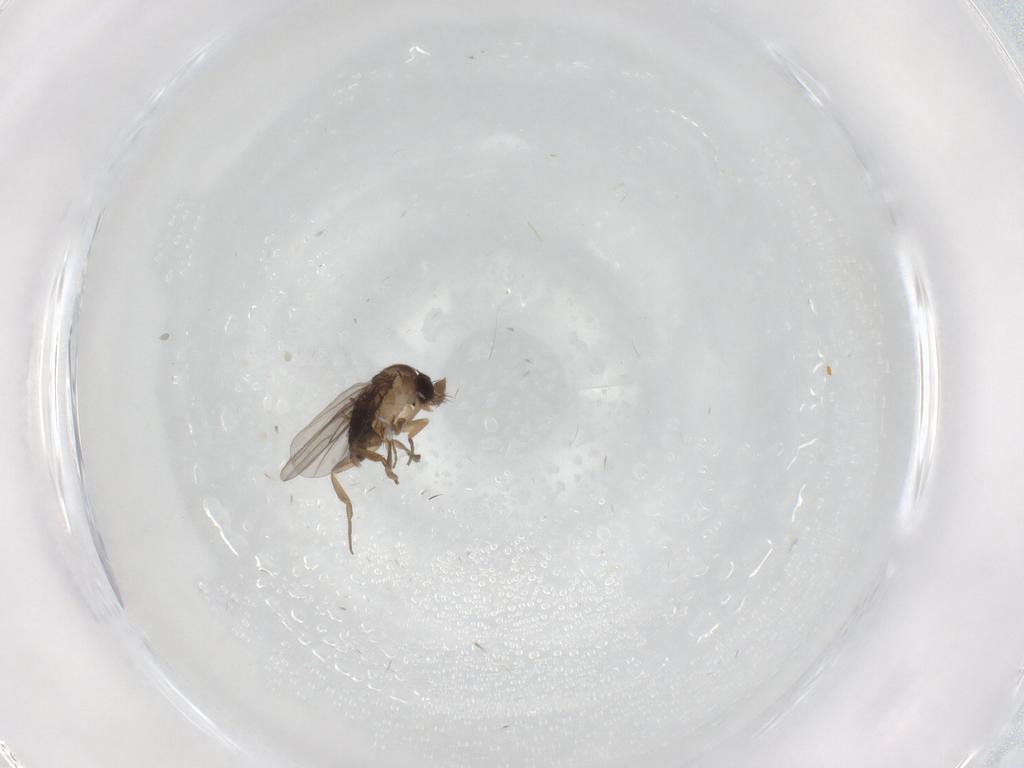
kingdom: Animalia
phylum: Arthropoda
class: Insecta
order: Diptera
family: Phoridae
